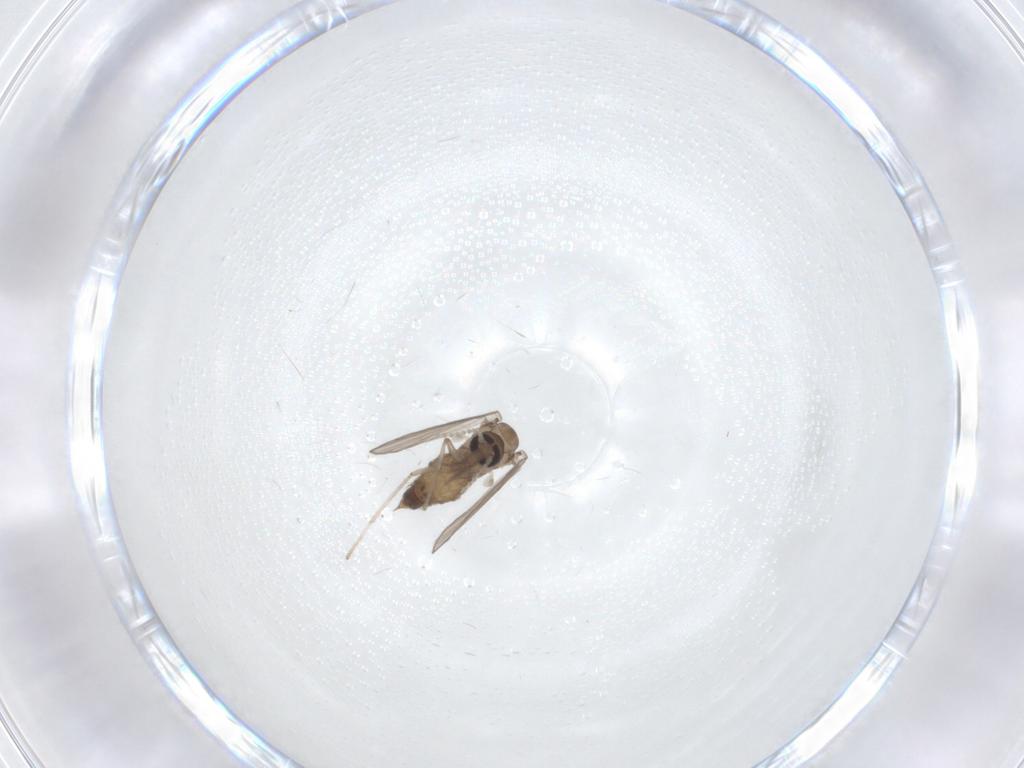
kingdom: Animalia
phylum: Arthropoda
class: Insecta
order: Diptera
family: Psychodidae
